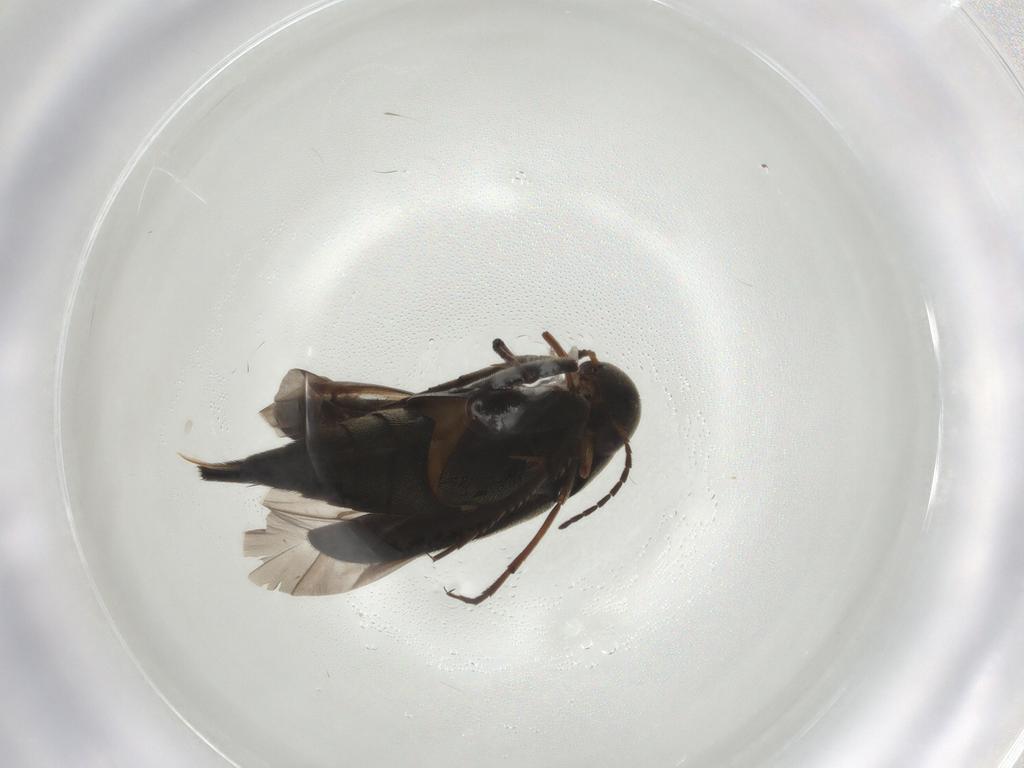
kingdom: Animalia
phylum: Arthropoda
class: Insecta
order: Coleoptera
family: Mordellidae
